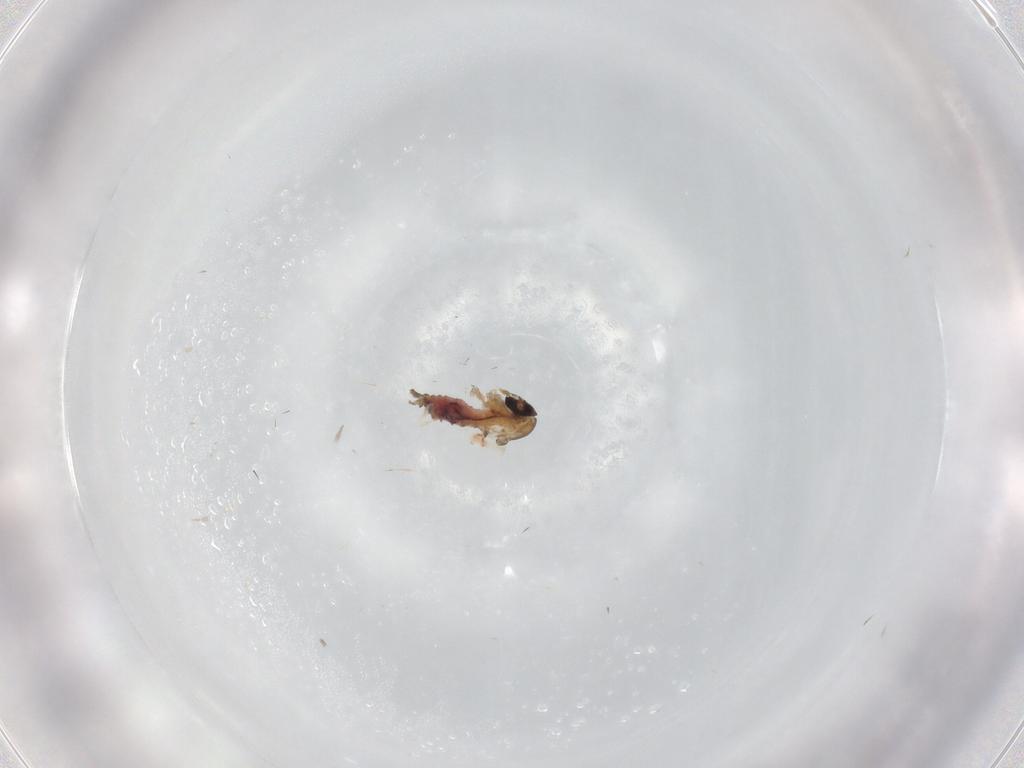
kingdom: Animalia
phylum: Arthropoda
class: Insecta
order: Diptera
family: Psychodidae
